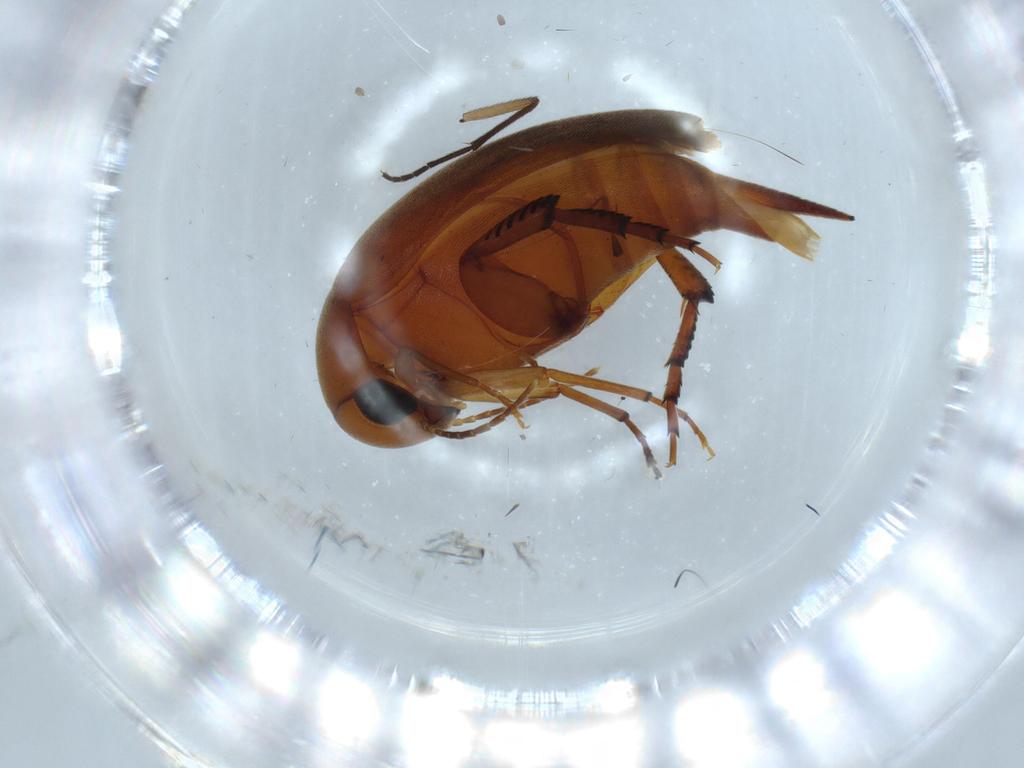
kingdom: Animalia
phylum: Arthropoda
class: Insecta
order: Coleoptera
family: Mordellidae
